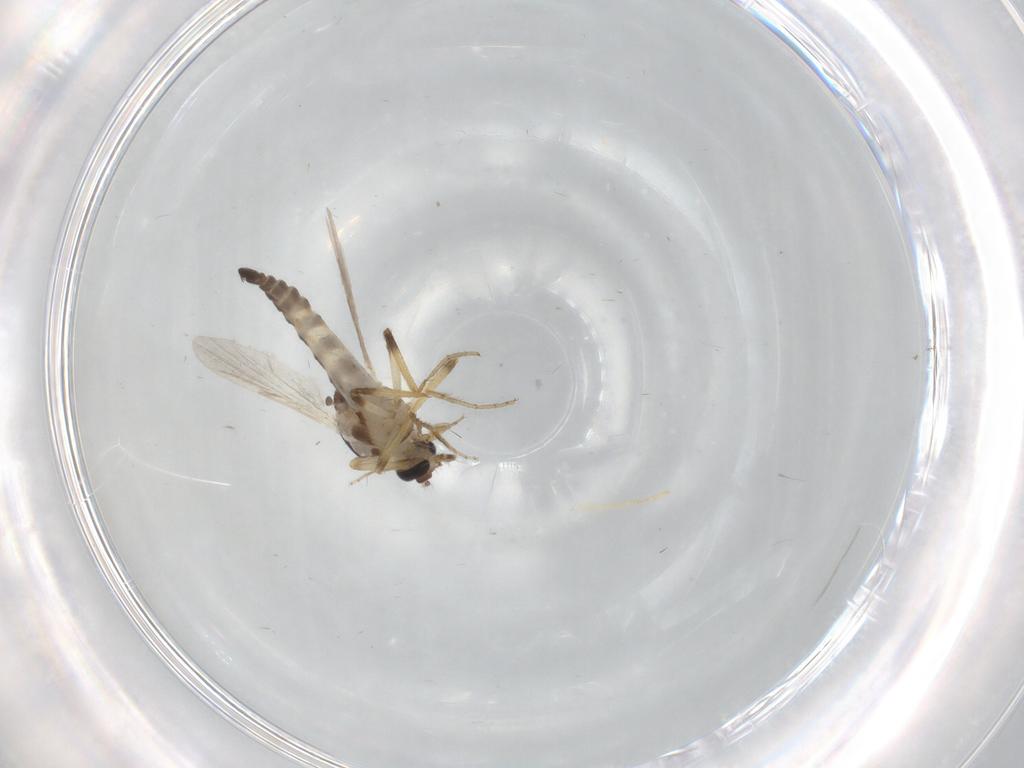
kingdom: Animalia
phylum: Arthropoda
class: Insecta
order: Diptera
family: Ceratopogonidae
